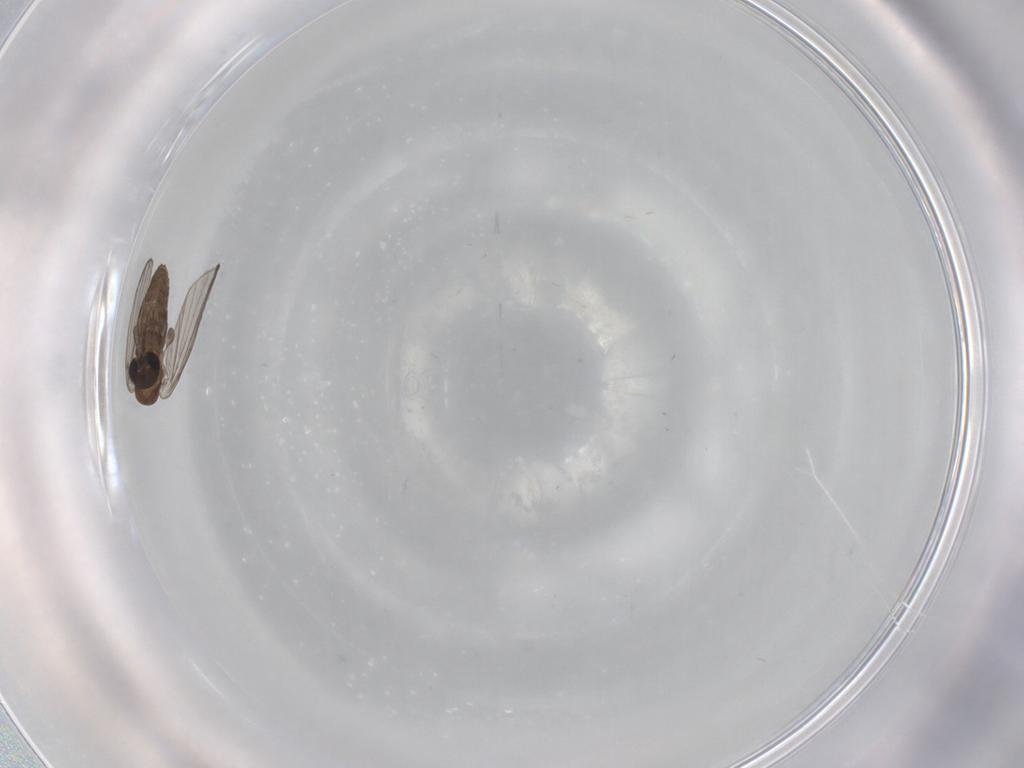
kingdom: Animalia
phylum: Arthropoda
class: Insecta
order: Diptera
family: Psychodidae
